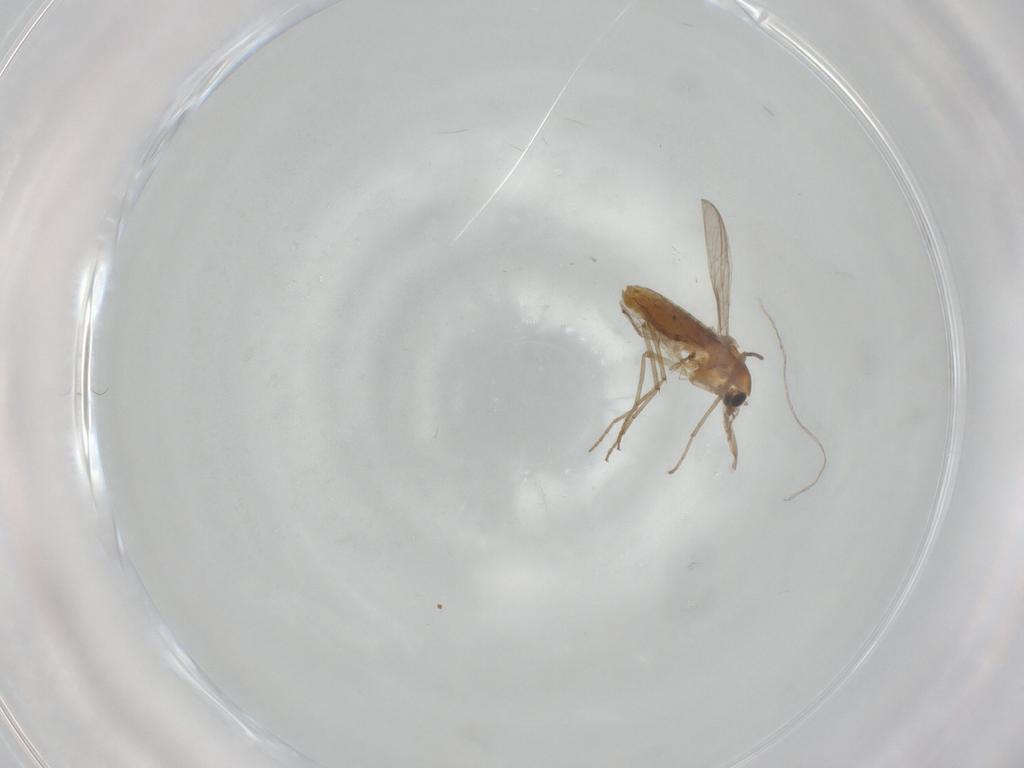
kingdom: Animalia
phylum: Arthropoda
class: Insecta
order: Diptera
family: Chironomidae
